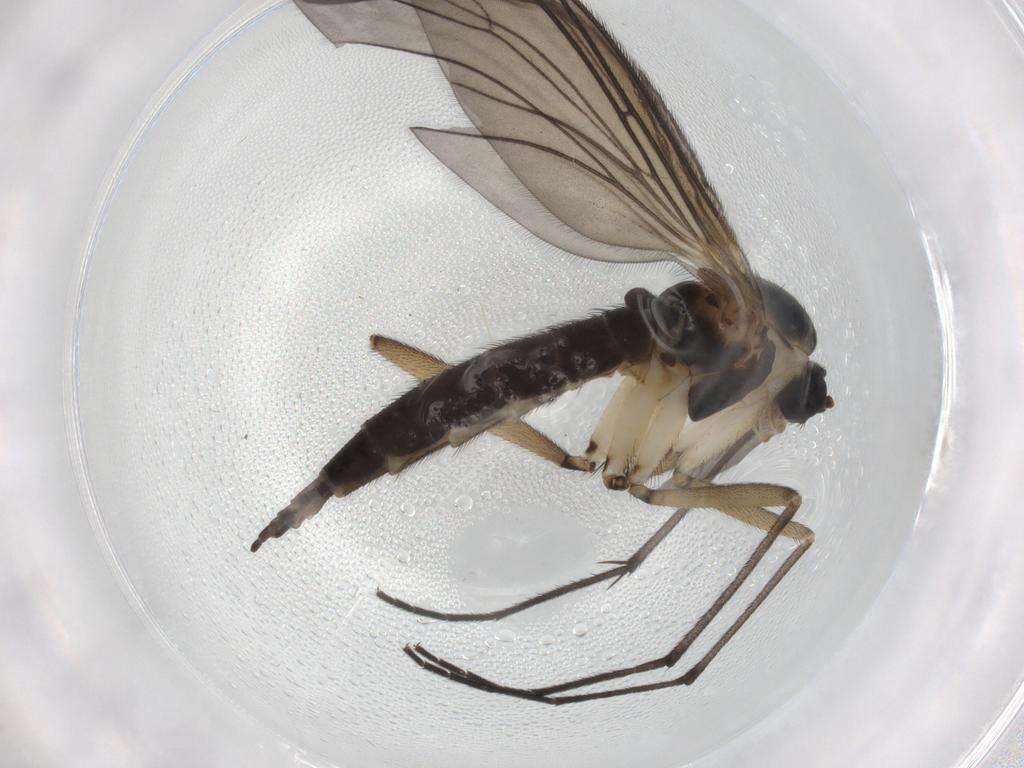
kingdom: Animalia
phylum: Arthropoda
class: Insecta
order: Diptera
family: Sciaridae
